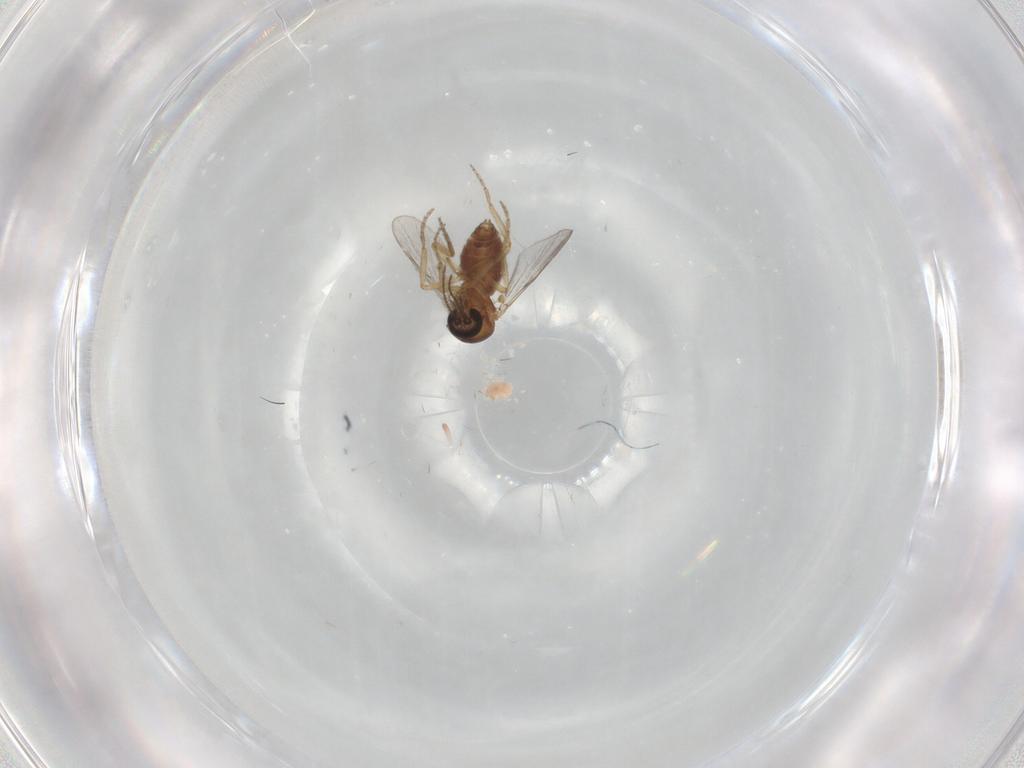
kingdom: Animalia
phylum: Arthropoda
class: Insecta
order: Diptera
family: Ceratopogonidae
